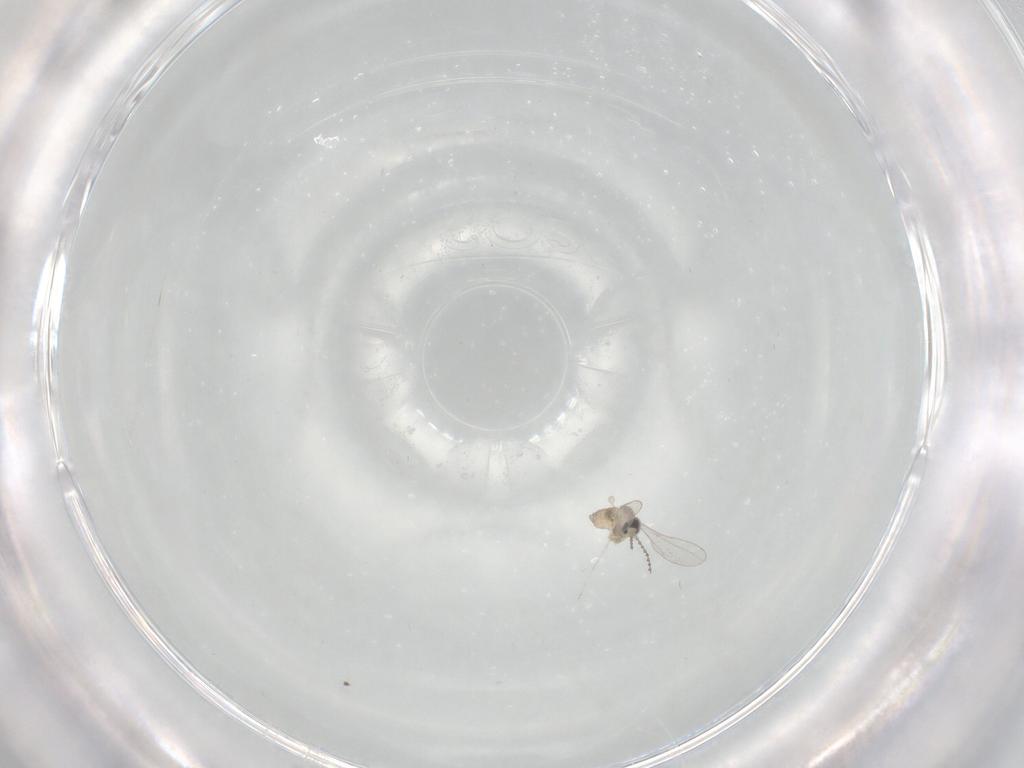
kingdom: Animalia
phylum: Arthropoda
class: Insecta
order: Diptera
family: Cecidomyiidae
